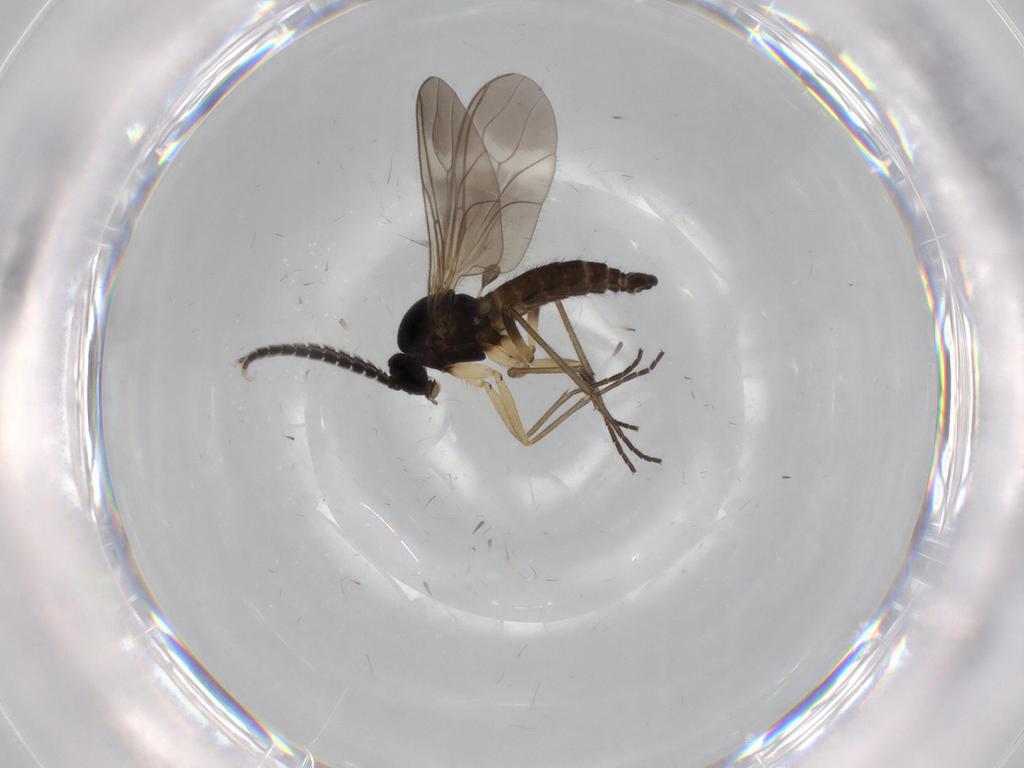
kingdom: Animalia
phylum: Arthropoda
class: Insecta
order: Diptera
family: Sciaridae
